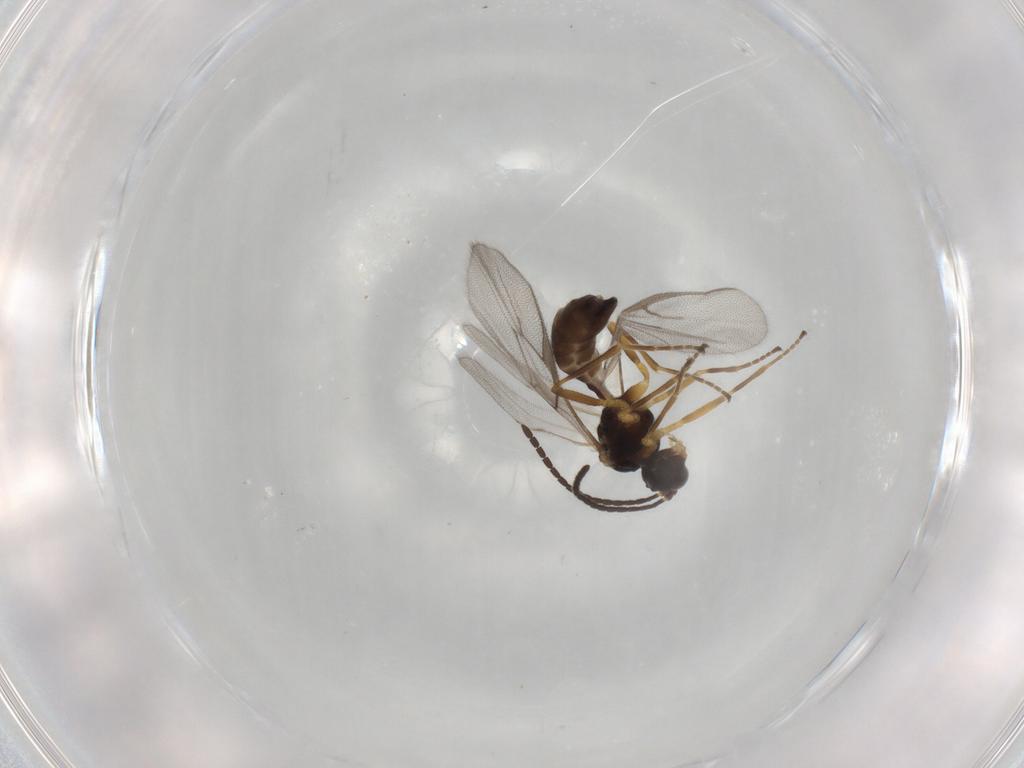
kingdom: Animalia
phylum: Arthropoda
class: Insecta
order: Hymenoptera
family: Braconidae
